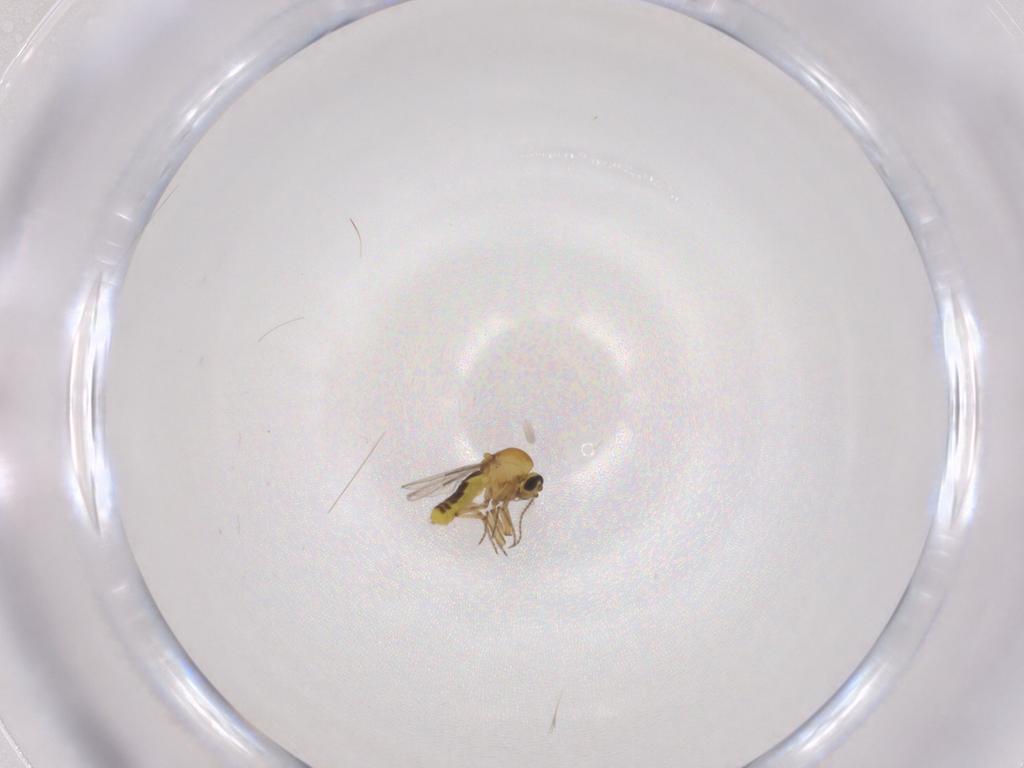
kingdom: Animalia
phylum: Arthropoda
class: Insecta
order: Diptera
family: Ceratopogonidae
